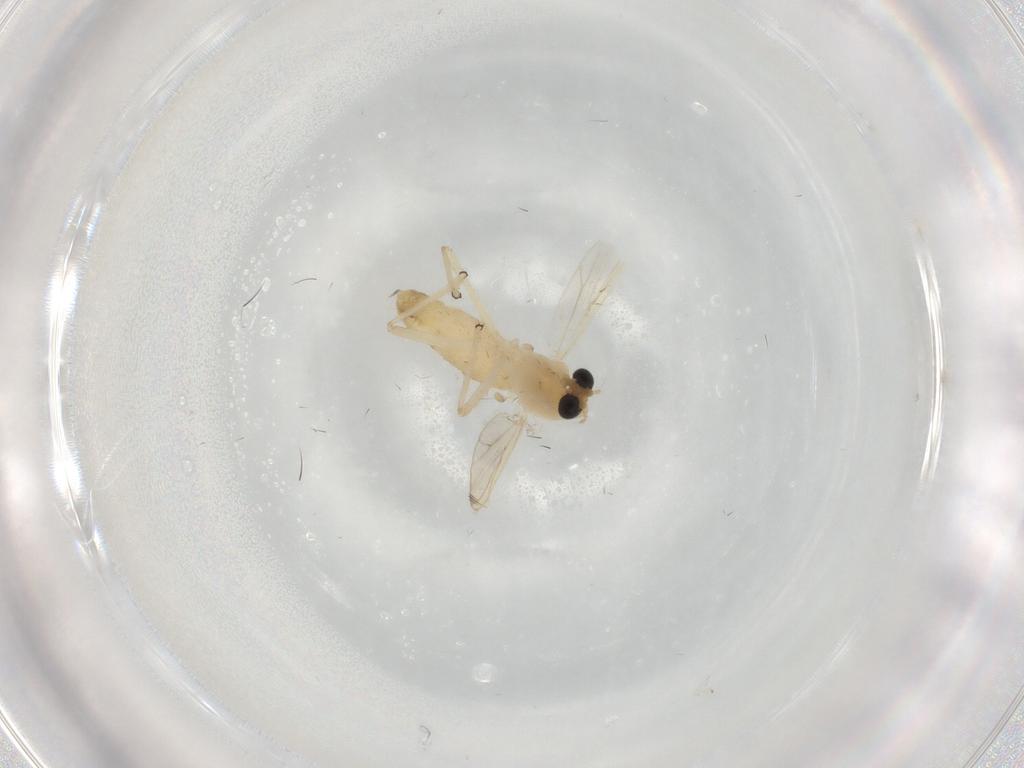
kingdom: Animalia
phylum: Arthropoda
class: Insecta
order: Diptera
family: Chironomidae
